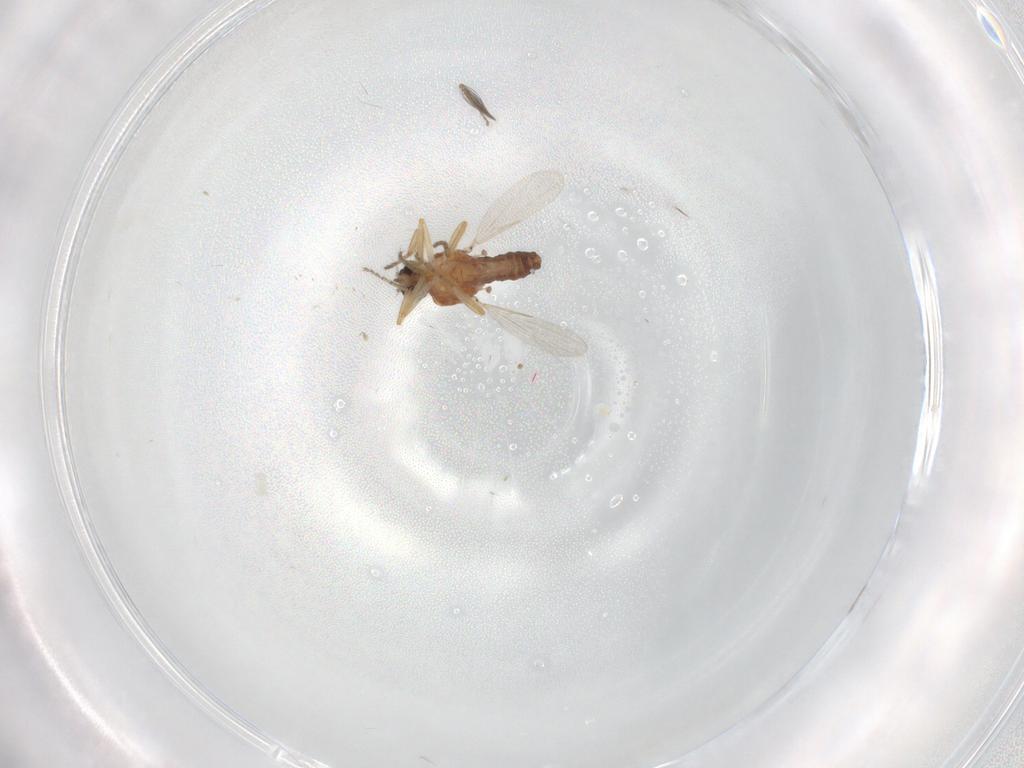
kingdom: Animalia
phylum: Arthropoda
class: Insecta
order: Diptera
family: Ceratopogonidae
